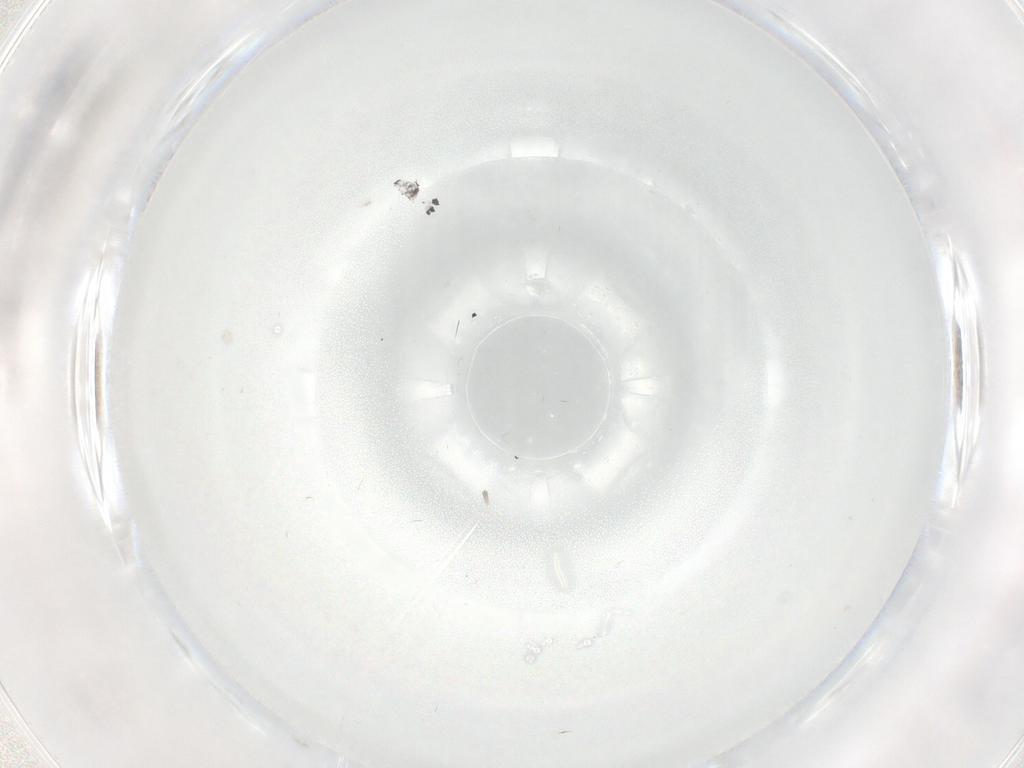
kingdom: Animalia
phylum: Arthropoda
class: Insecta
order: Diptera
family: Cecidomyiidae
